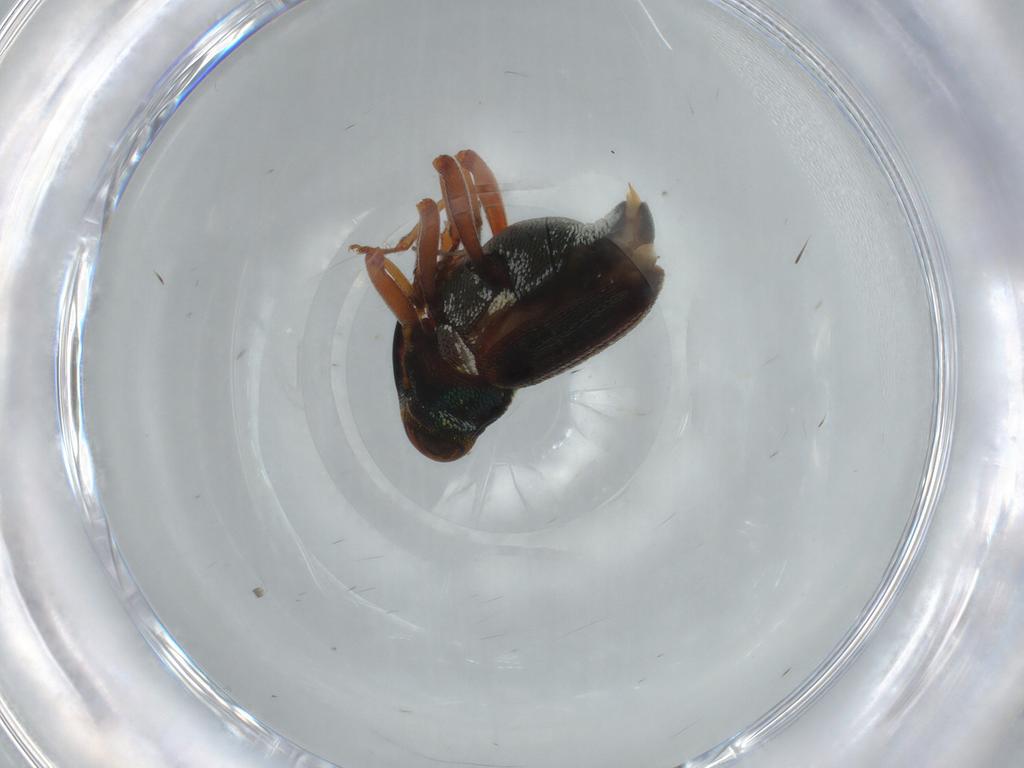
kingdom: Animalia
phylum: Arthropoda
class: Insecta
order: Coleoptera
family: Curculionidae
